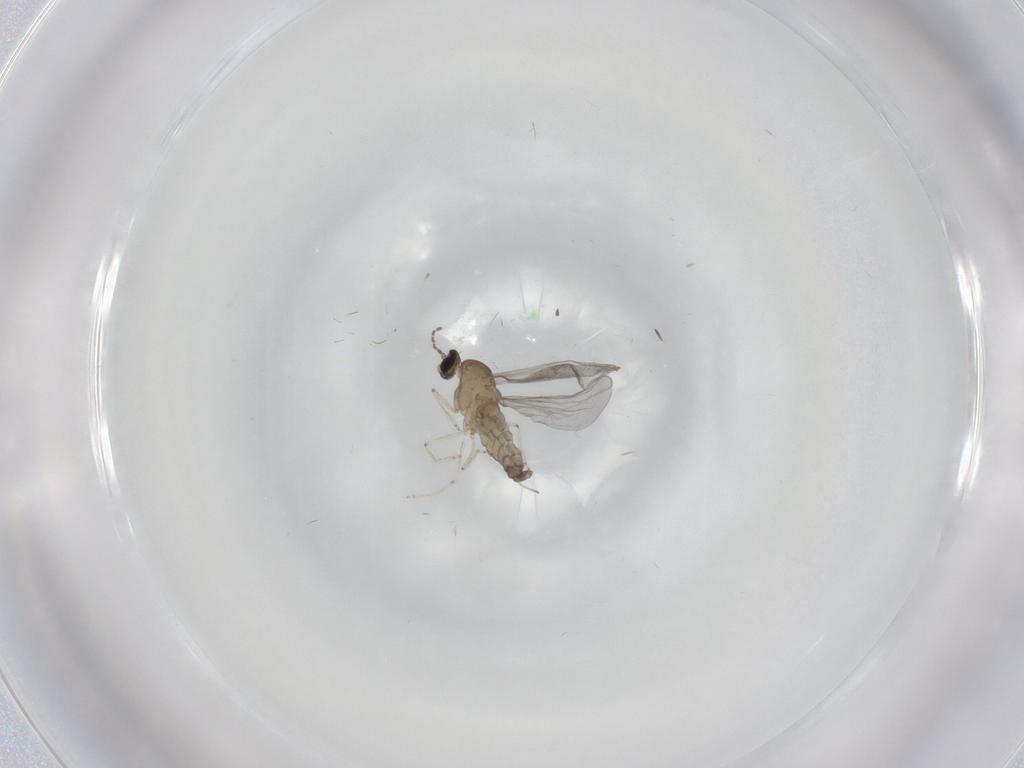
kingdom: Animalia
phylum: Arthropoda
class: Insecta
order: Diptera
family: Cecidomyiidae
